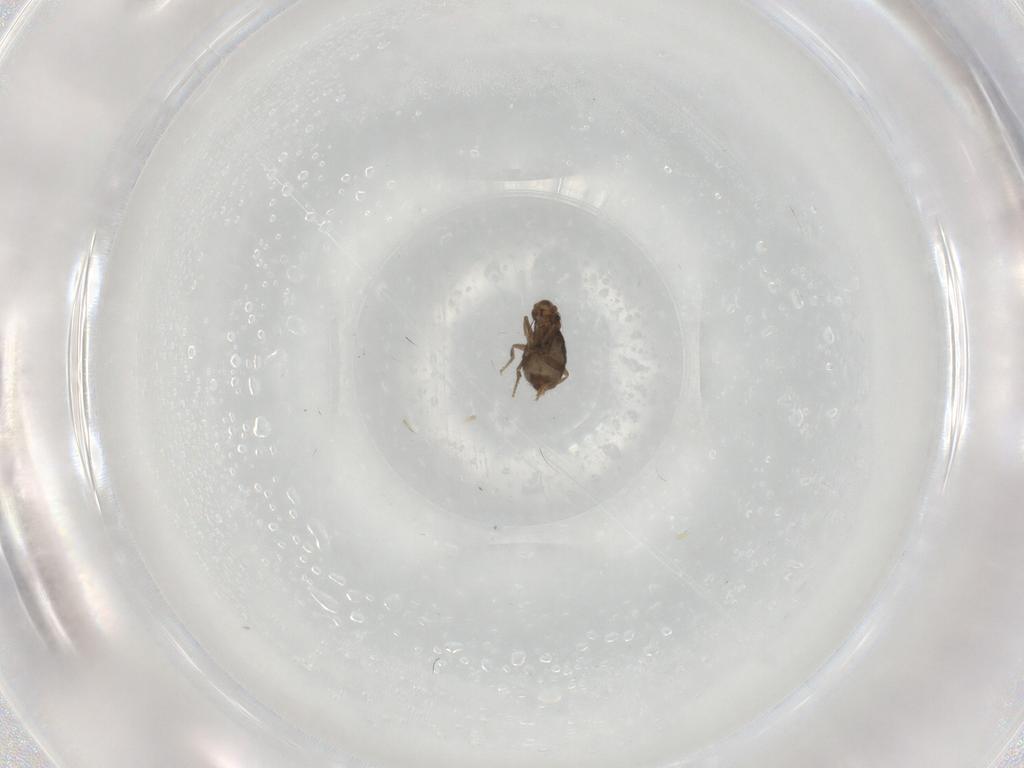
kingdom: Animalia
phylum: Arthropoda
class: Insecta
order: Diptera
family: Phoridae
